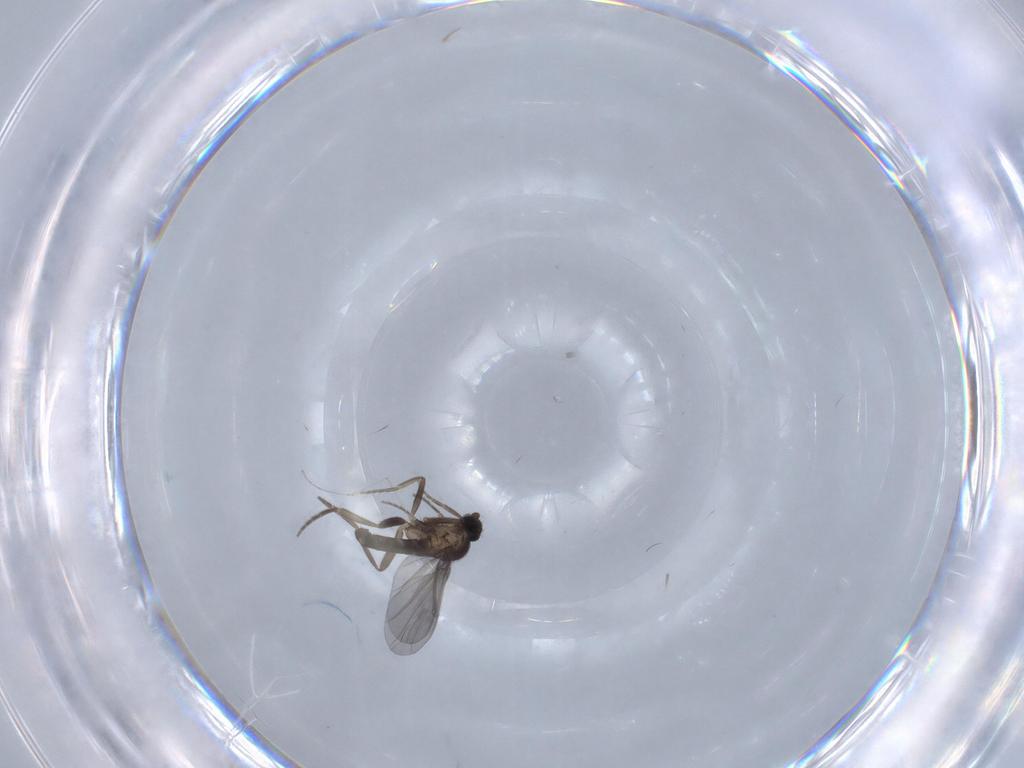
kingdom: Animalia
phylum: Arthropoda
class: Insecta
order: Diptera
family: Phoridae
